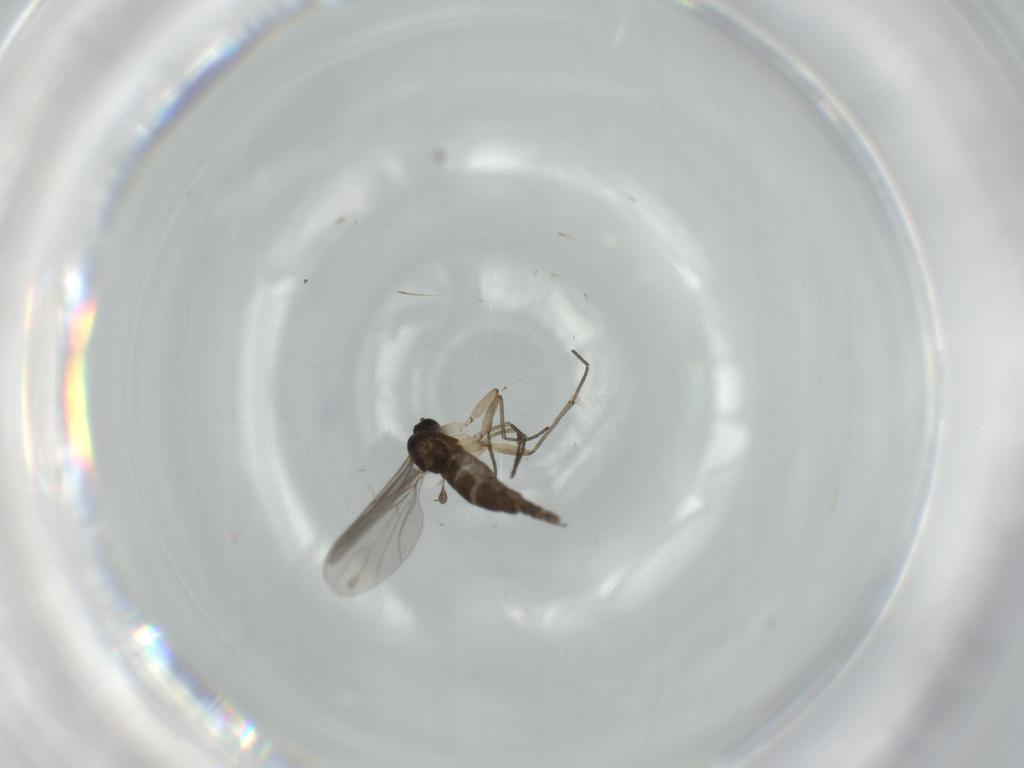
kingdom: Animalia
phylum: Arthropoda
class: Insecta
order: Diptera
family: Sciaridae
